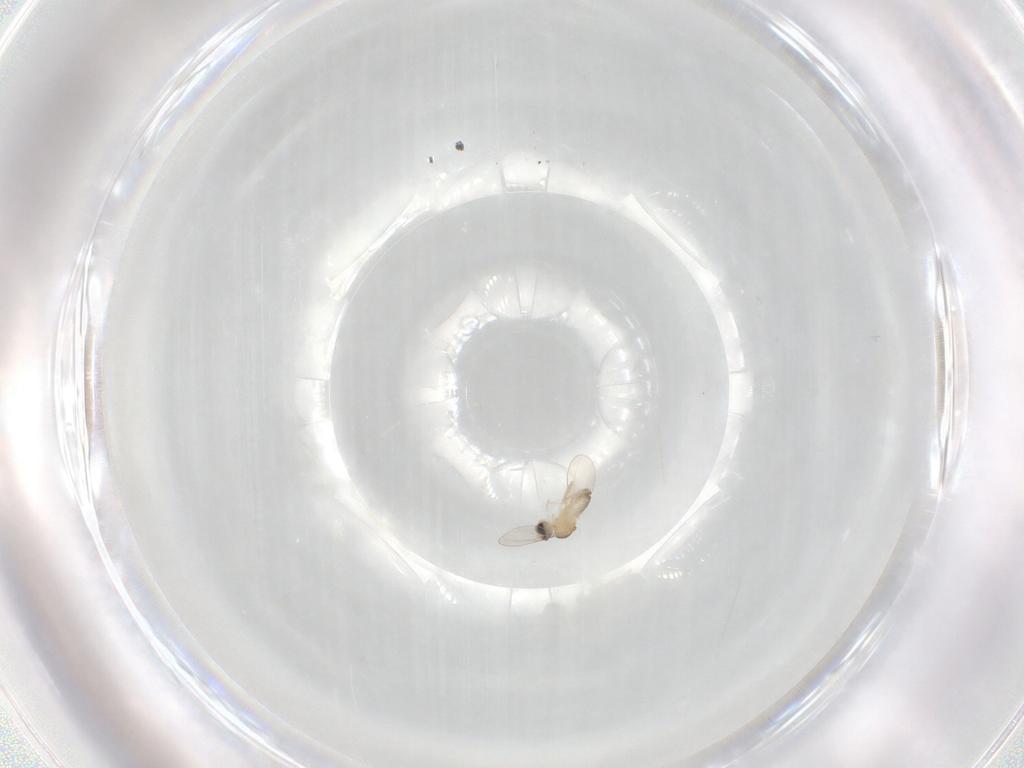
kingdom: Animalia
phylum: Arthropoda
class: Insecta
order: Diptera
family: Cecidomyiidae
